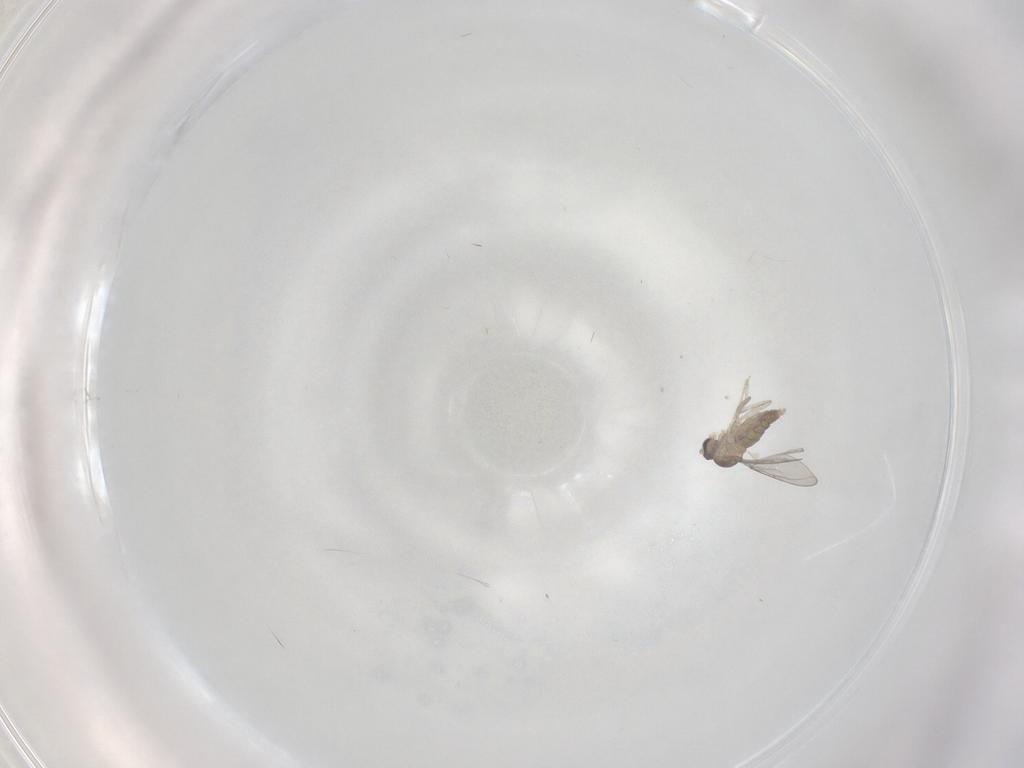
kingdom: Animalia
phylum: Arthropoda
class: Insecta
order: Diptera
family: Cecidomyiidae
